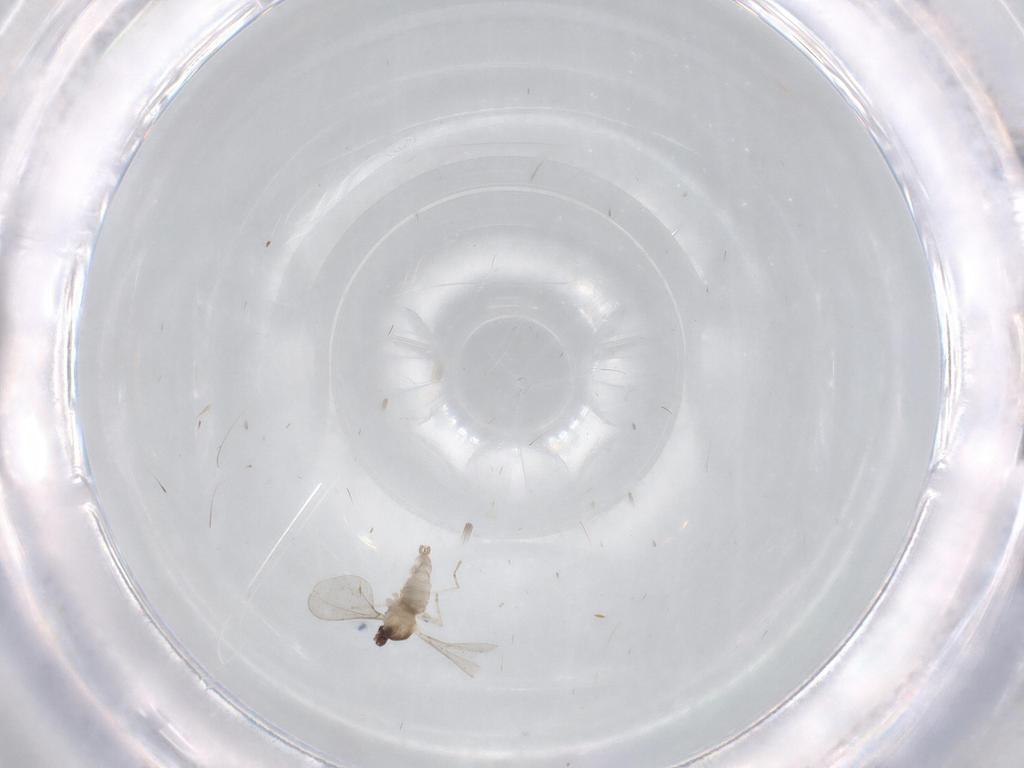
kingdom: Animalia
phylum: Arthropoda
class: Insecta
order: Diptera
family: Cecidomyiidae
